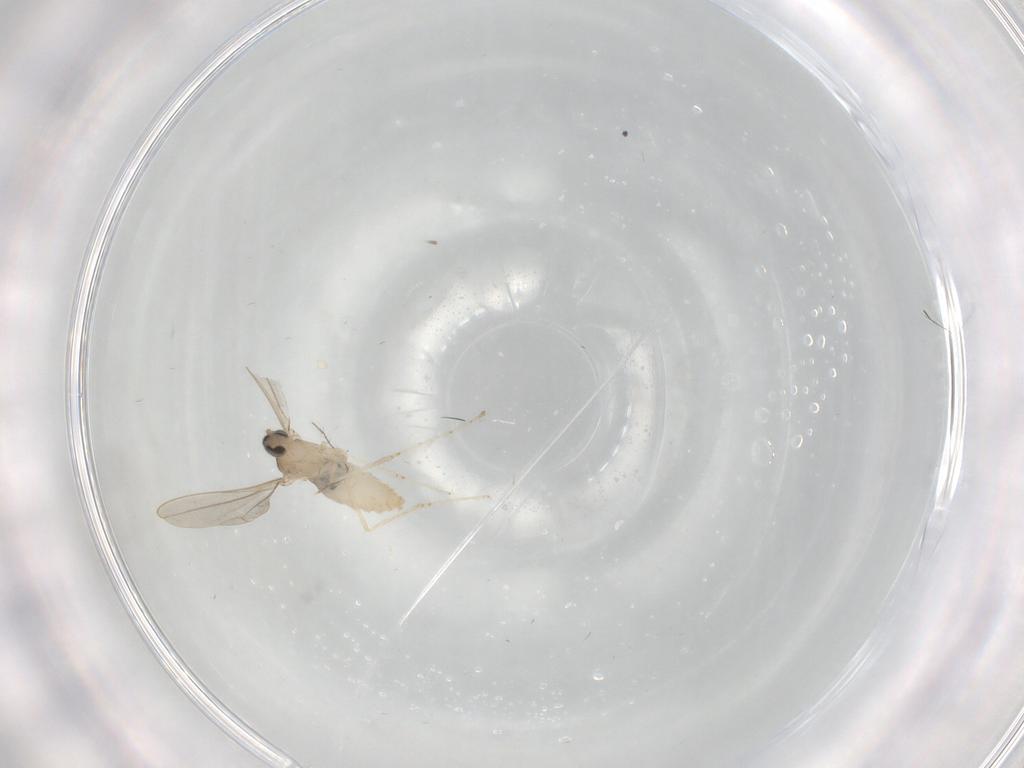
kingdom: Animalia
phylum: Arthropoda
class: Insecta
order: Diptera
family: Cecidomyiidae
